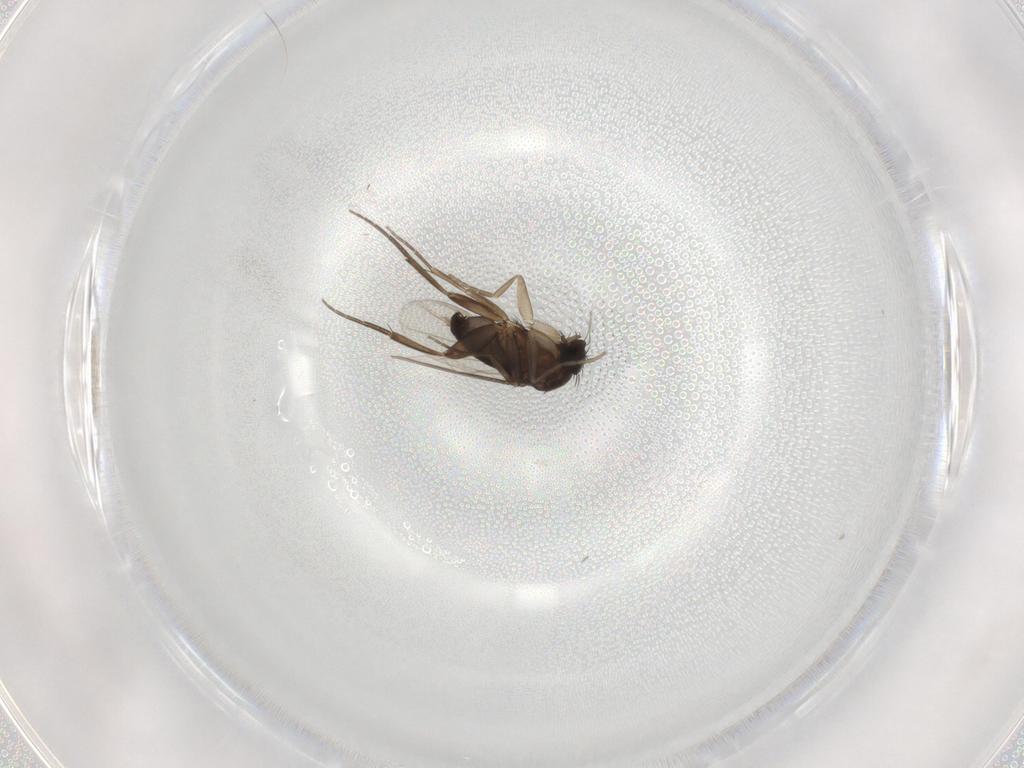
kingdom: Animalia
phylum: Arthropoda
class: Insecta
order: Diptera
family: Phoridae
